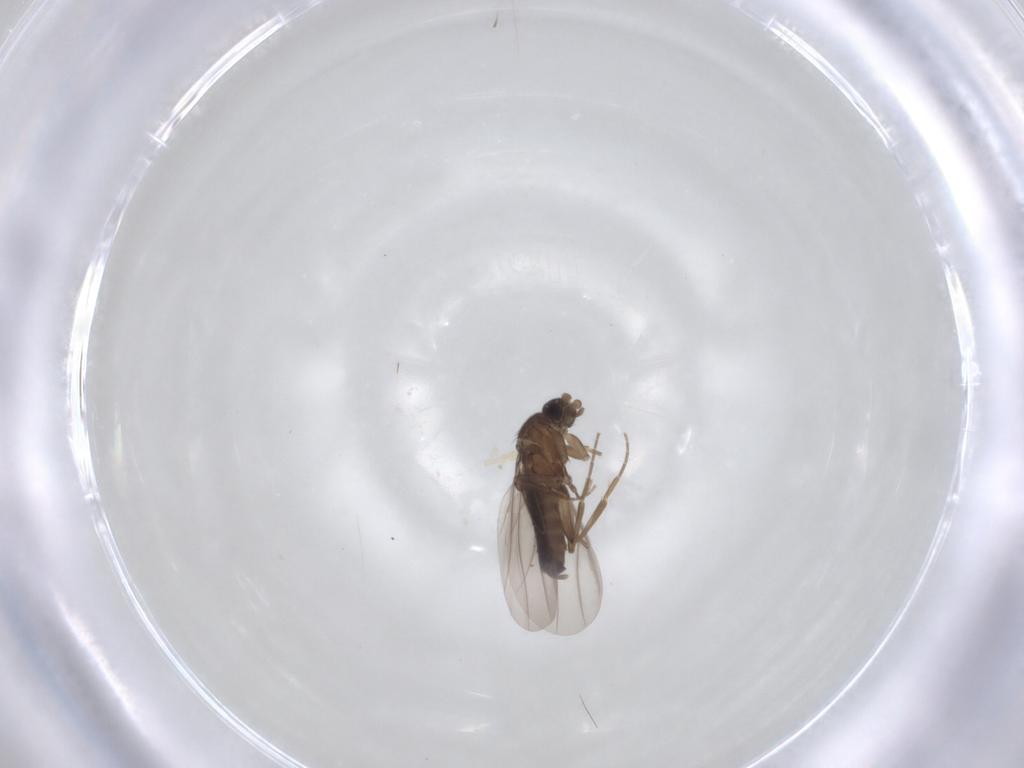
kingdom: Animalia
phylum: Arthropoda
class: Insecta
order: Diptera
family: Phoridae
